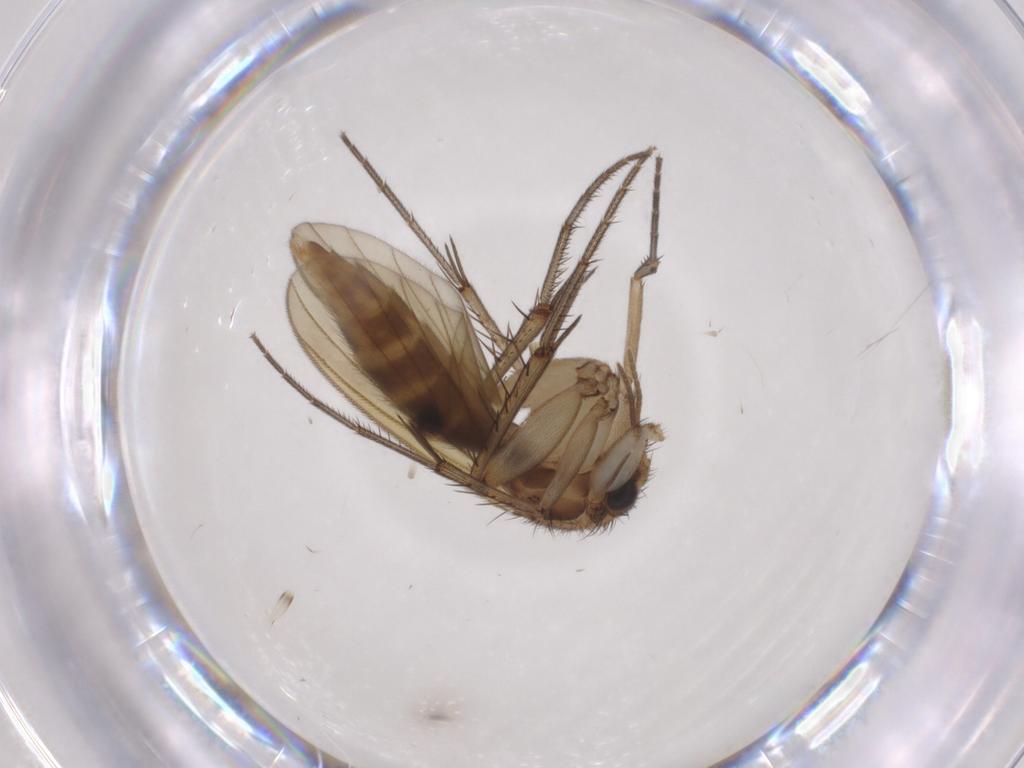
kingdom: Animalia
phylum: Arthropoda
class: Insecta
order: Diptera
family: Mycetophilidae
